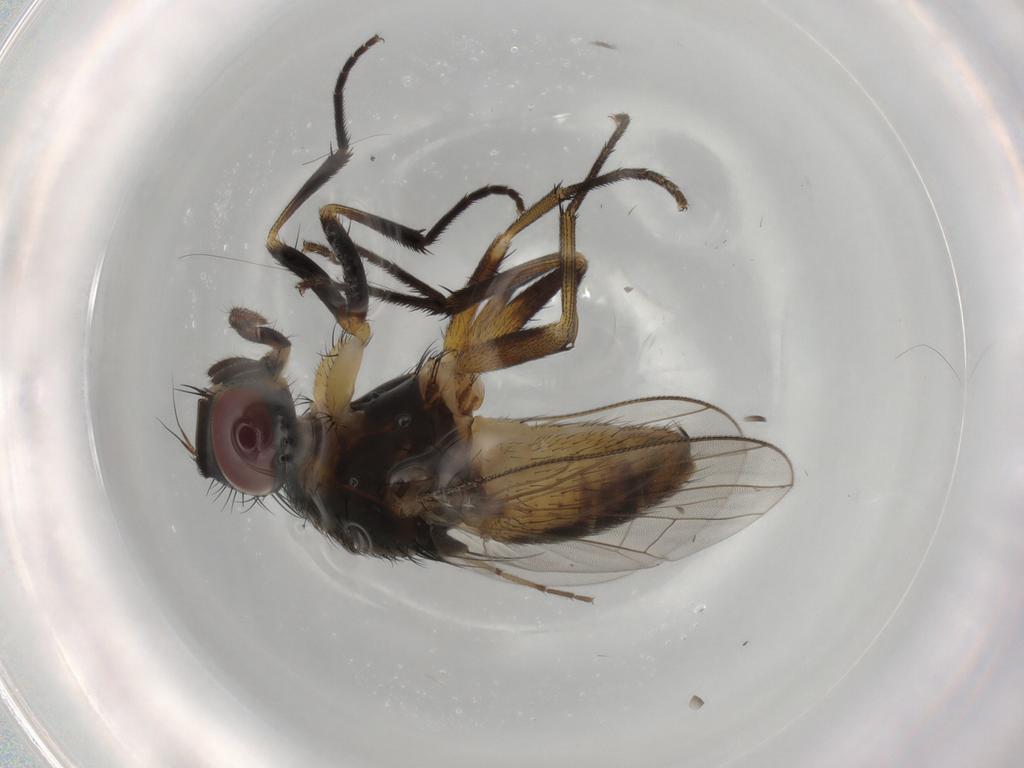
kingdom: Animalia
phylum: Arthropoda
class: Insecta
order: Diptera
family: Muscidae
